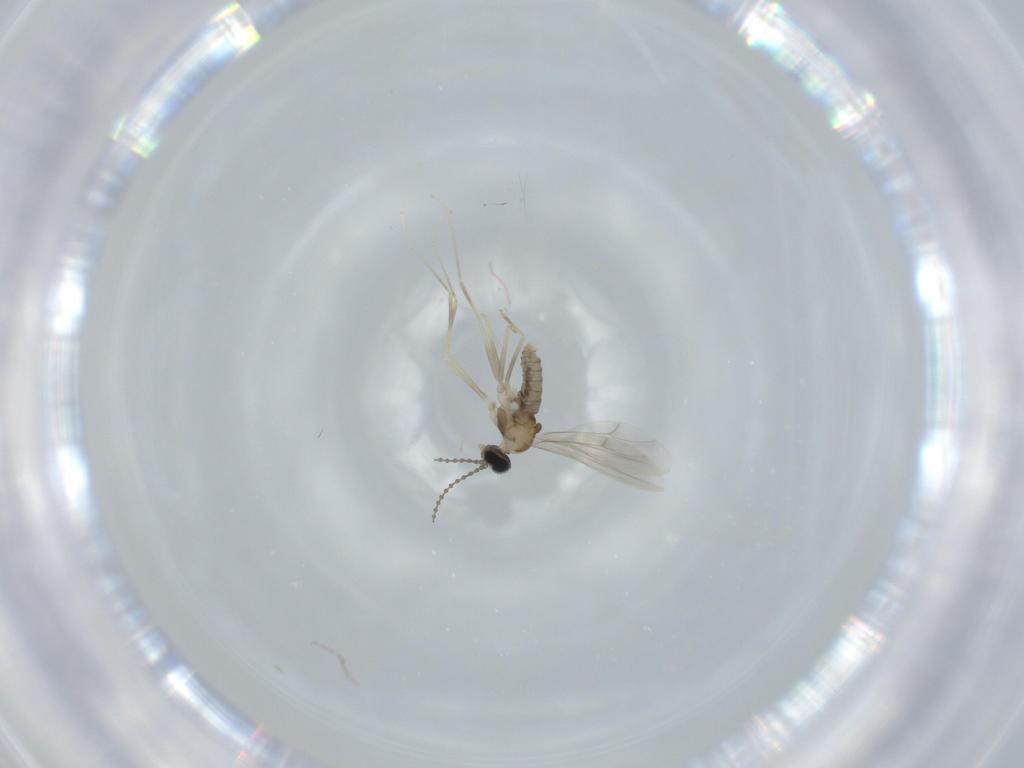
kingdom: Animalia
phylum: Arthropoda
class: Insecta
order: Diptera
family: Cecidomyiidae
